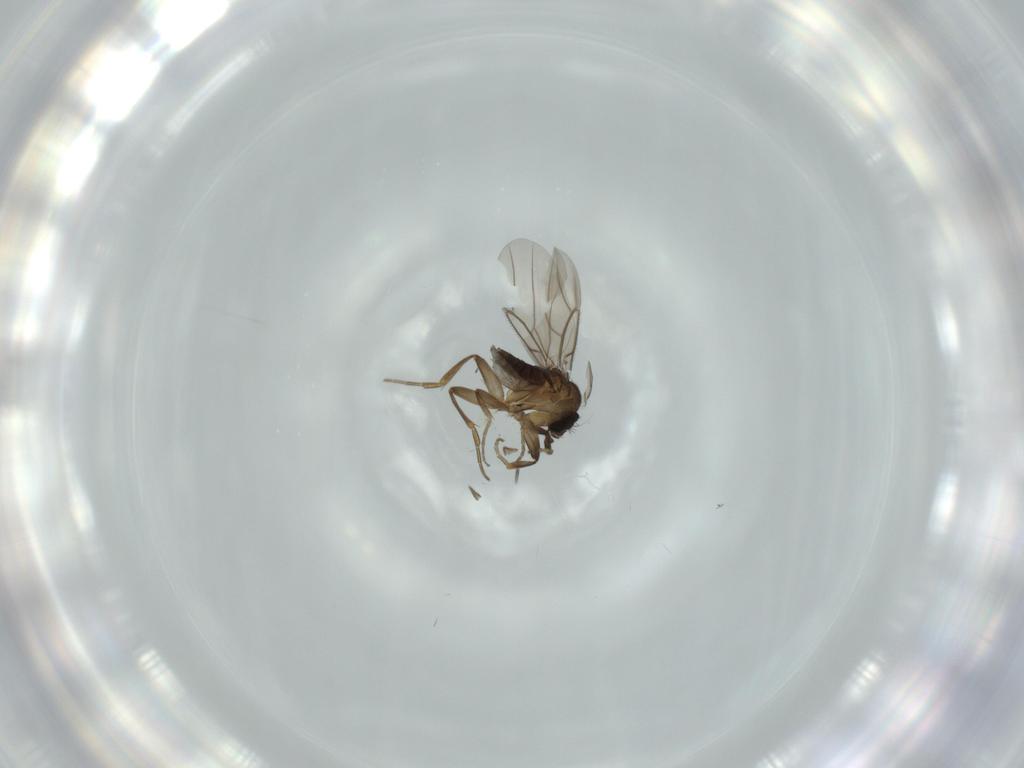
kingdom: Animalia
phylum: Arthropoda
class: Insecta
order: Diptera
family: Phoridae
